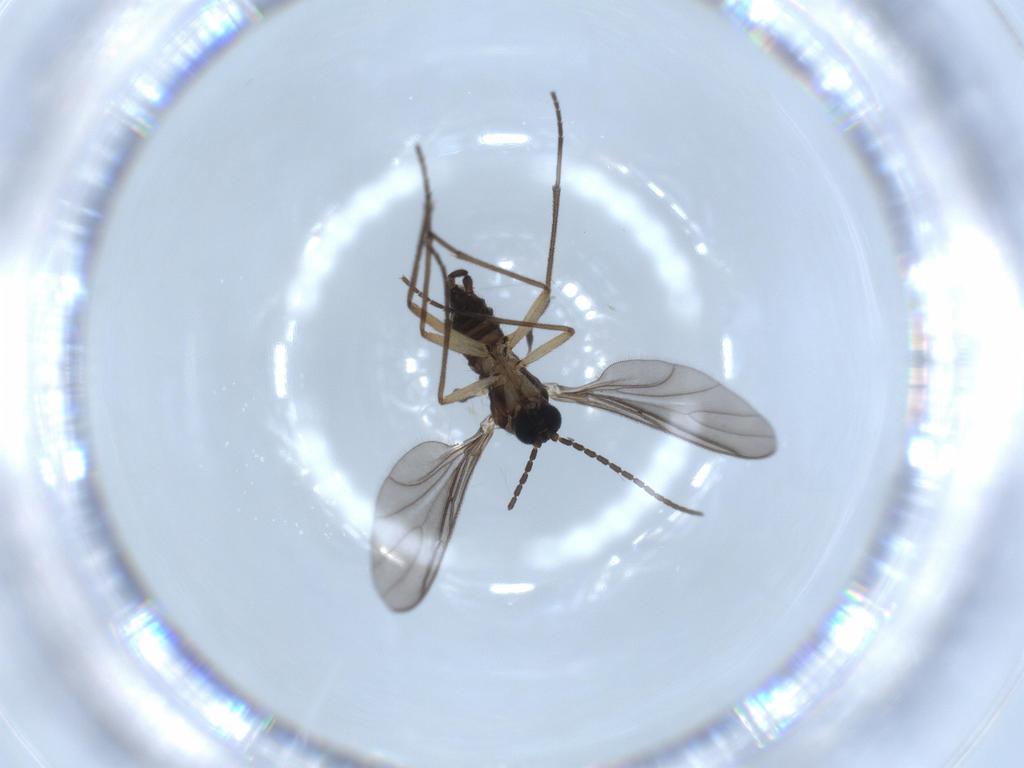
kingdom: Animalia
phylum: Arthropoda
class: Insecta
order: Diptera
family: Sciaridae
